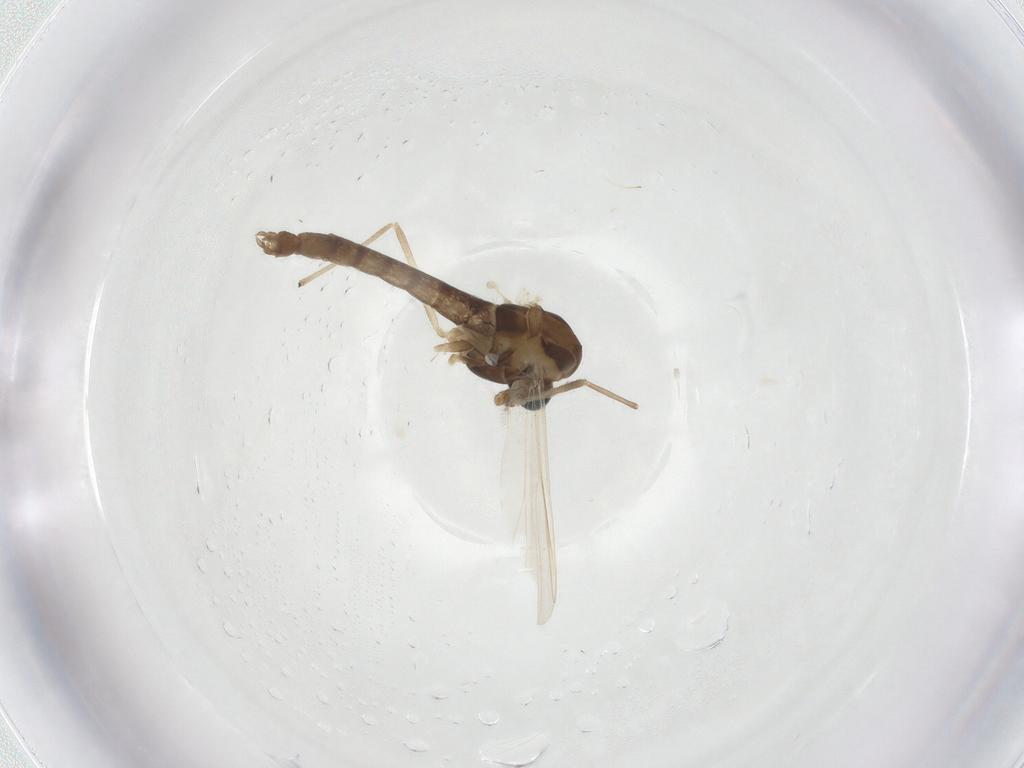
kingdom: Animalia
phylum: Arthropoda
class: Insecta
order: Diptera
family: Chironomidae
